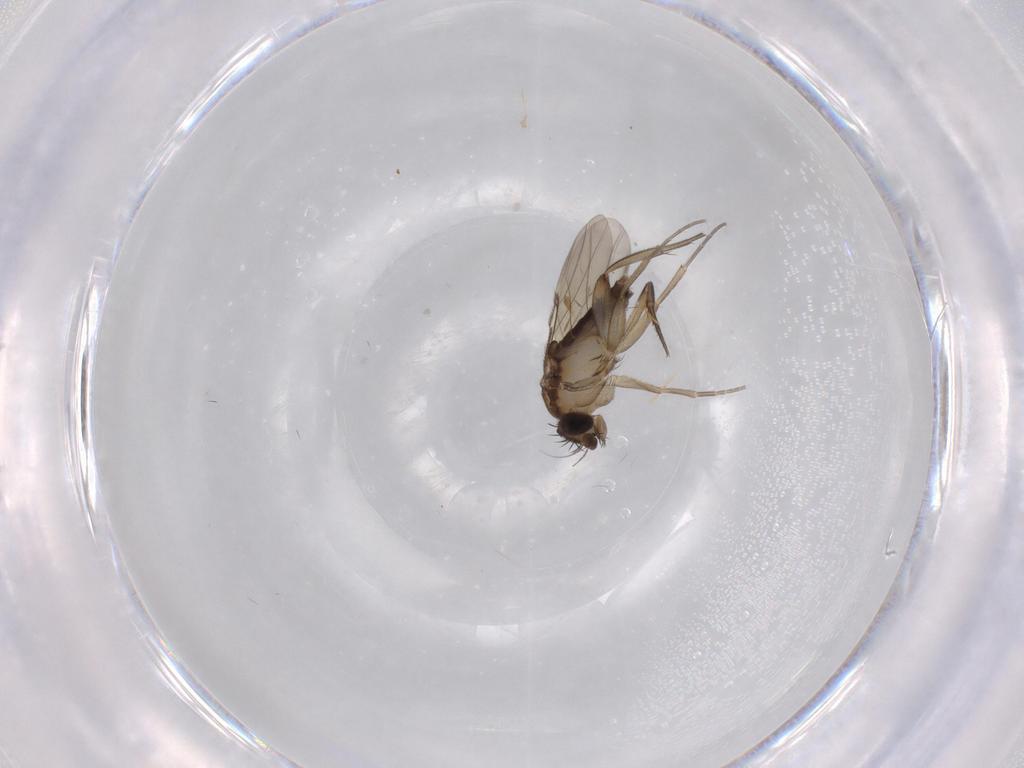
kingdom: Animalia
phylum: Arthropoda
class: Insecta
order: Diptera
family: Phoridae
